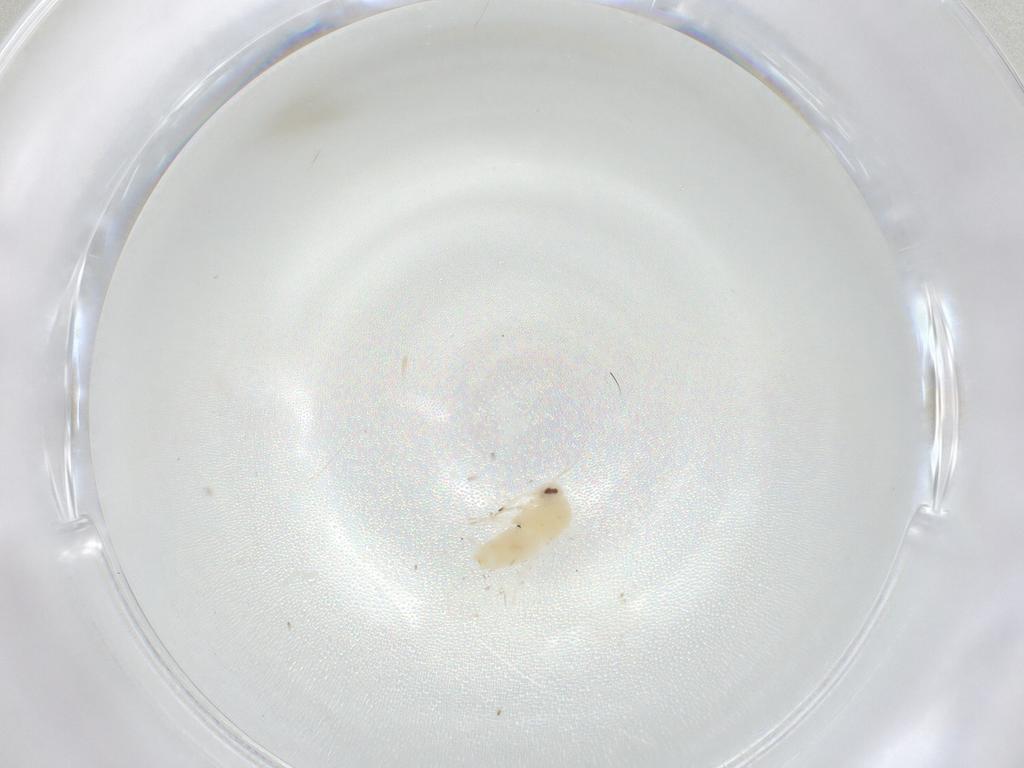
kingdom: Animalia
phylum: Arthropoda
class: Insecta
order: Hemiptera
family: Aleyrodidae
